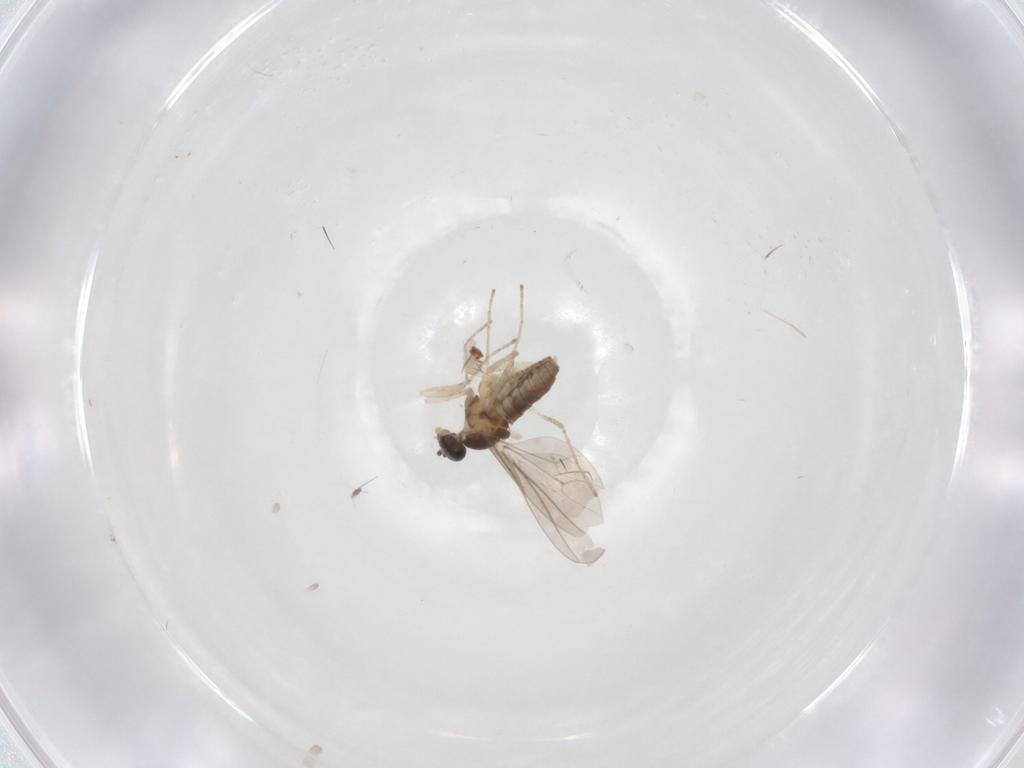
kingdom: Animalia
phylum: Arthropoda
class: Insecta
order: Diptera
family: Cecidomyiidae
